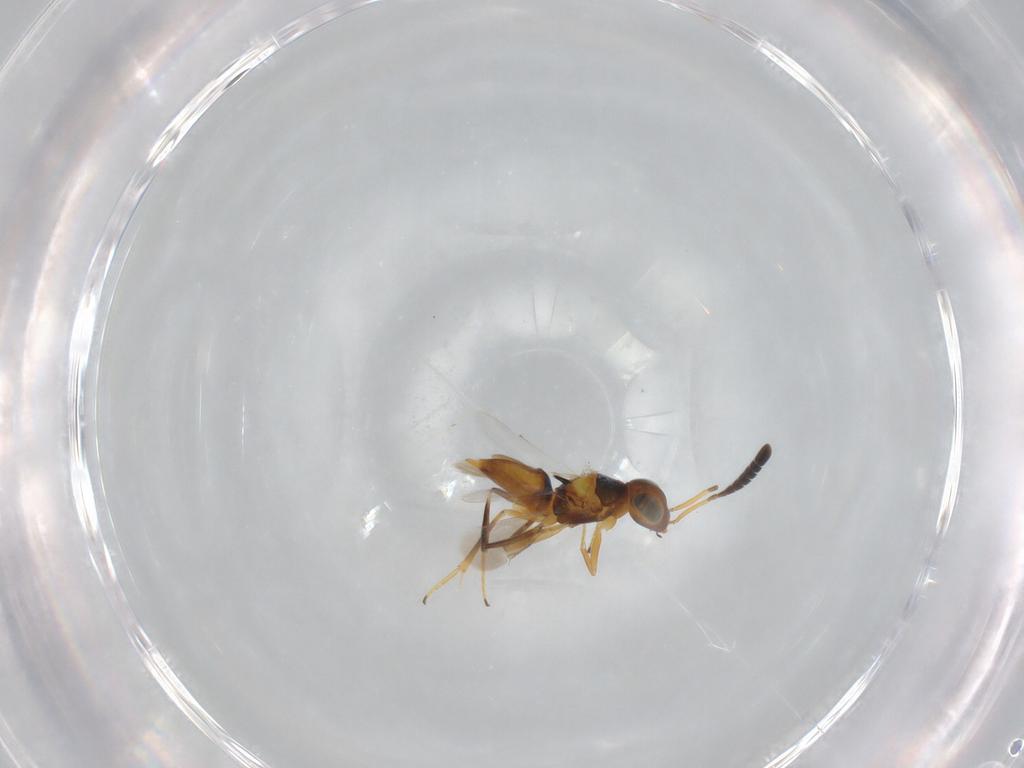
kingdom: Animalia
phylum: Arthropoda
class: Insecta
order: Hymenoptera
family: Encyrtidae
